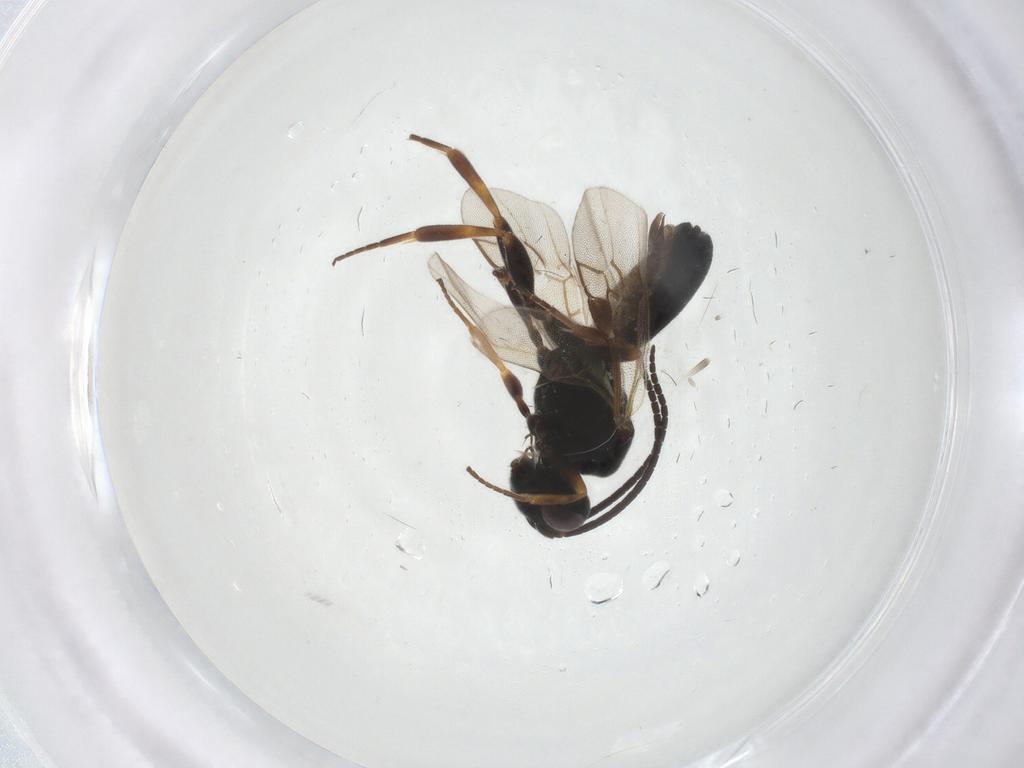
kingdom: Animalia
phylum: Arthropoda
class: Insecta
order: Hymenoptera
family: Braconidae
